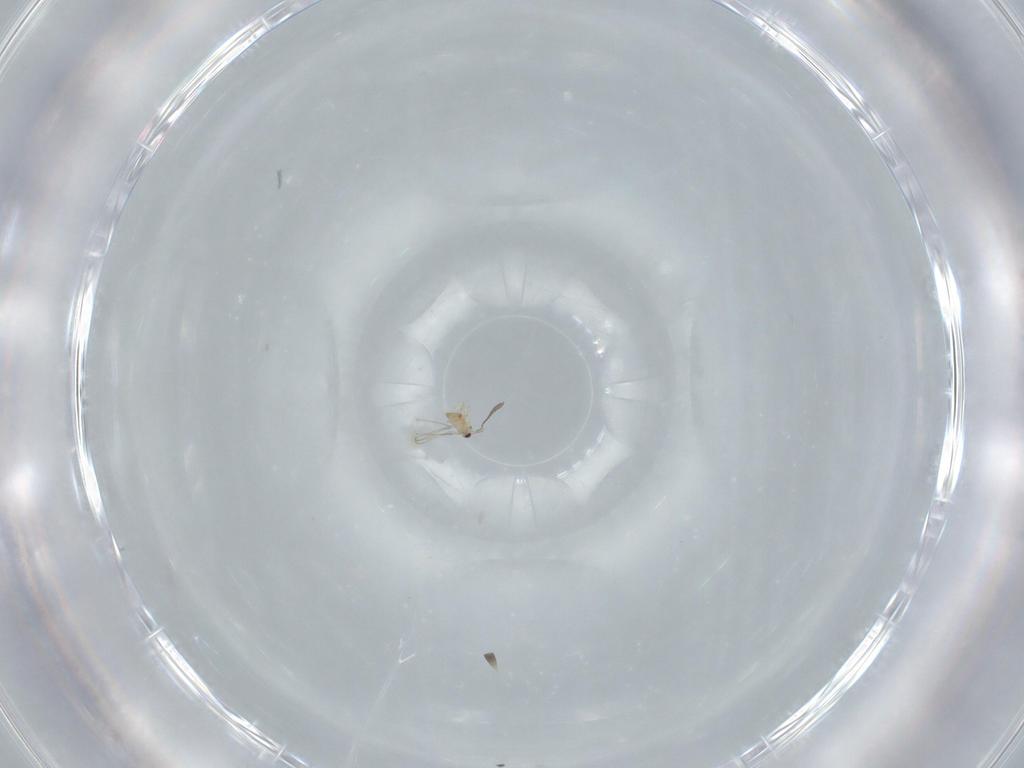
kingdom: Animalia
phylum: Arthropoda
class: Insecta
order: Hymenoptera
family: Mymaridae
